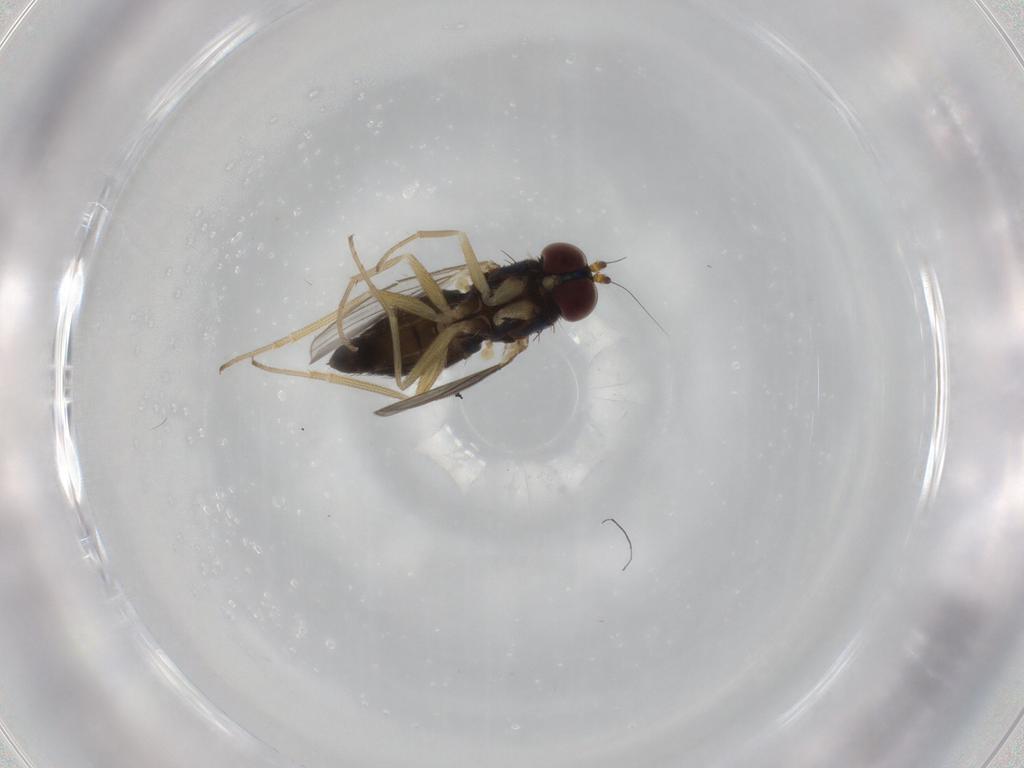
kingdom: Animalia
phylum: Arthropoda
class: Insecta
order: Diptera
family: Dolichopodidae
